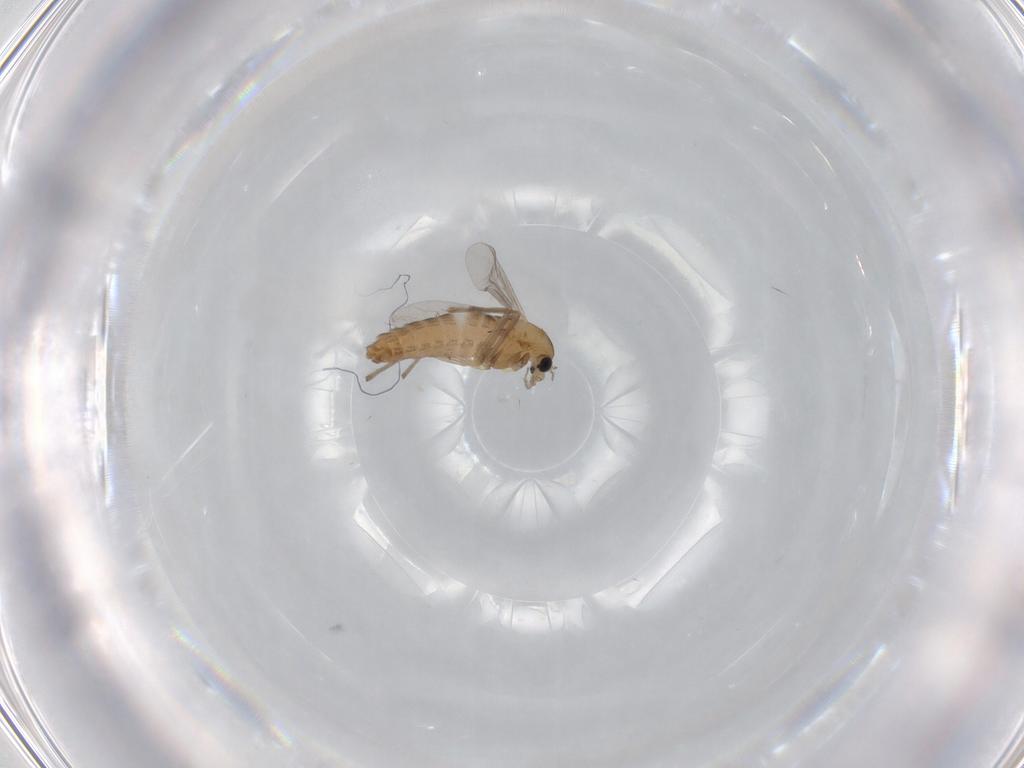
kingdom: Animalia
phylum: Arthropoda
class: Insecta
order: Diptera
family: Chironomidae
